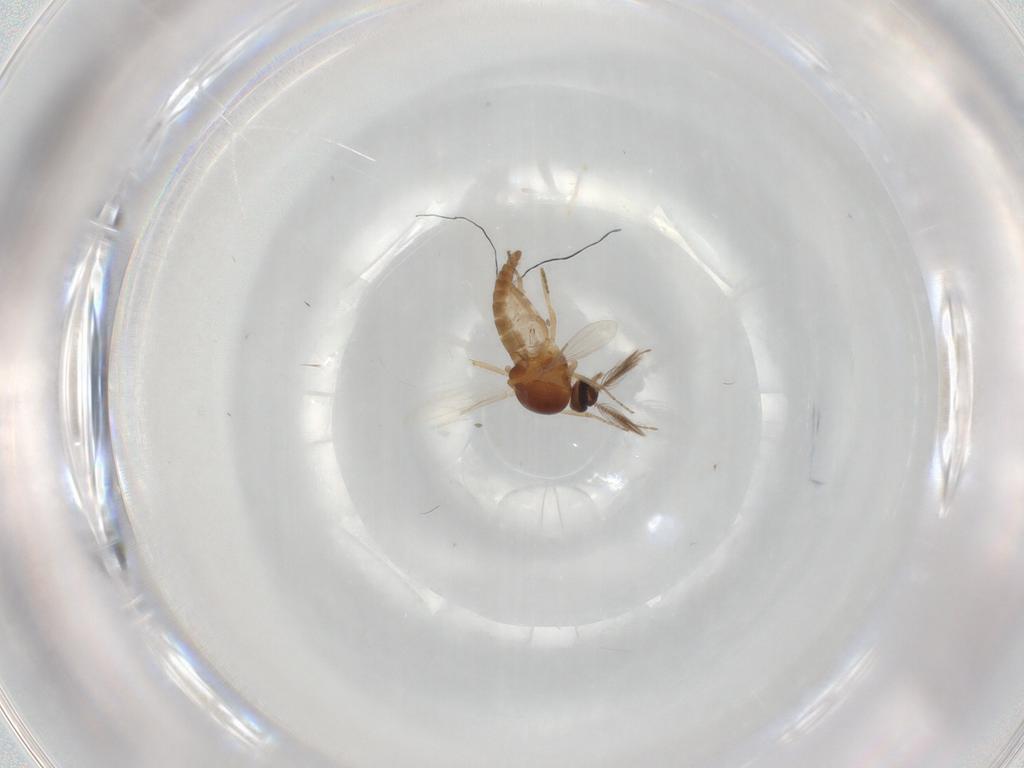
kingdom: Animalia
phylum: Arthropoda
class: Insecta
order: Diptera
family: Ceratopogonidae
